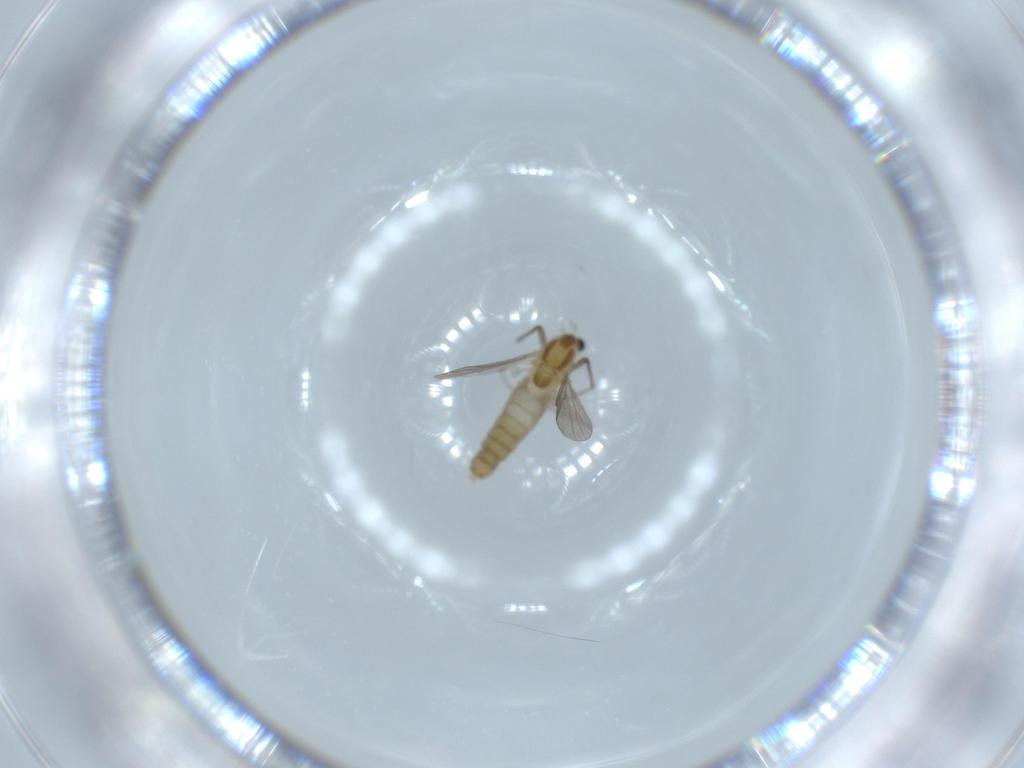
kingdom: Animalia
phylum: Arthropoda
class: Insecta
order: Diptera
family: Chironomidae
